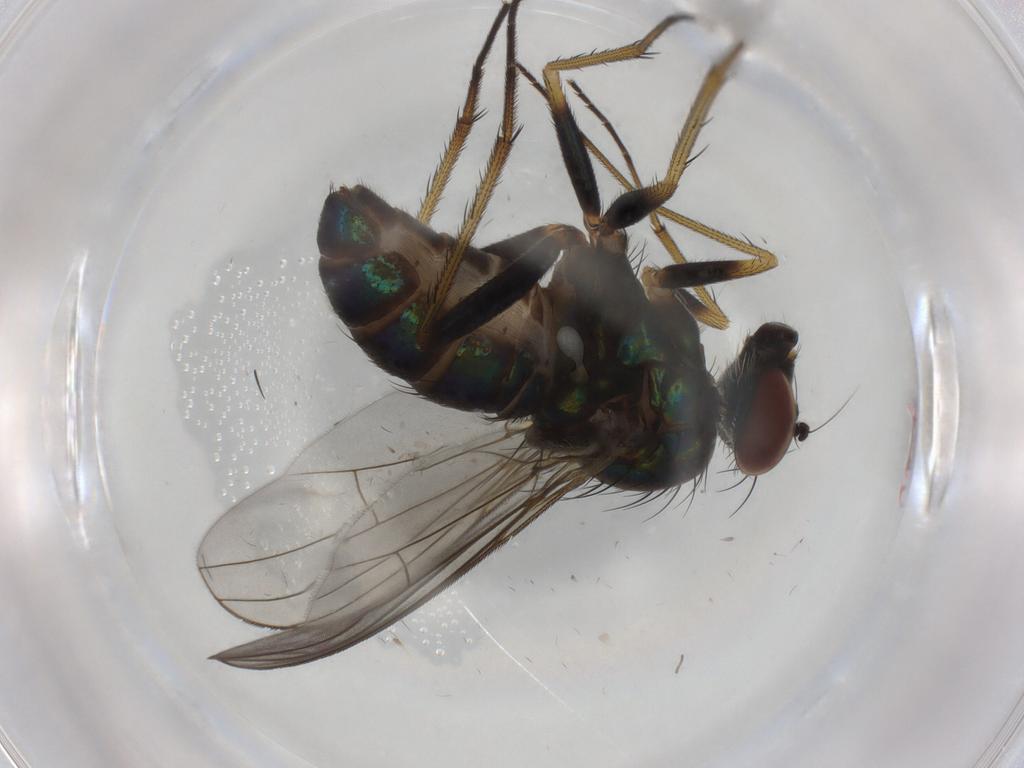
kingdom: Animalia
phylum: Arthropoda
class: Insecta
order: Diptera
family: Dolichopodidae
